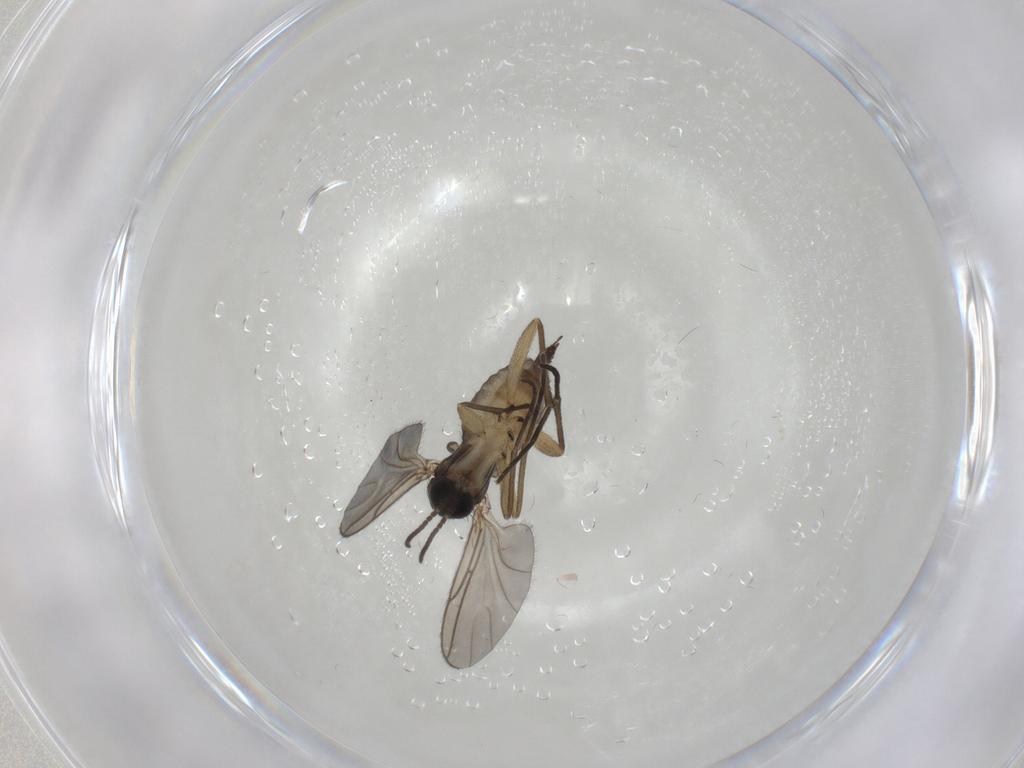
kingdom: Animalia
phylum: Arthropoda
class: Insecta
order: Diptera
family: Sciaridae
